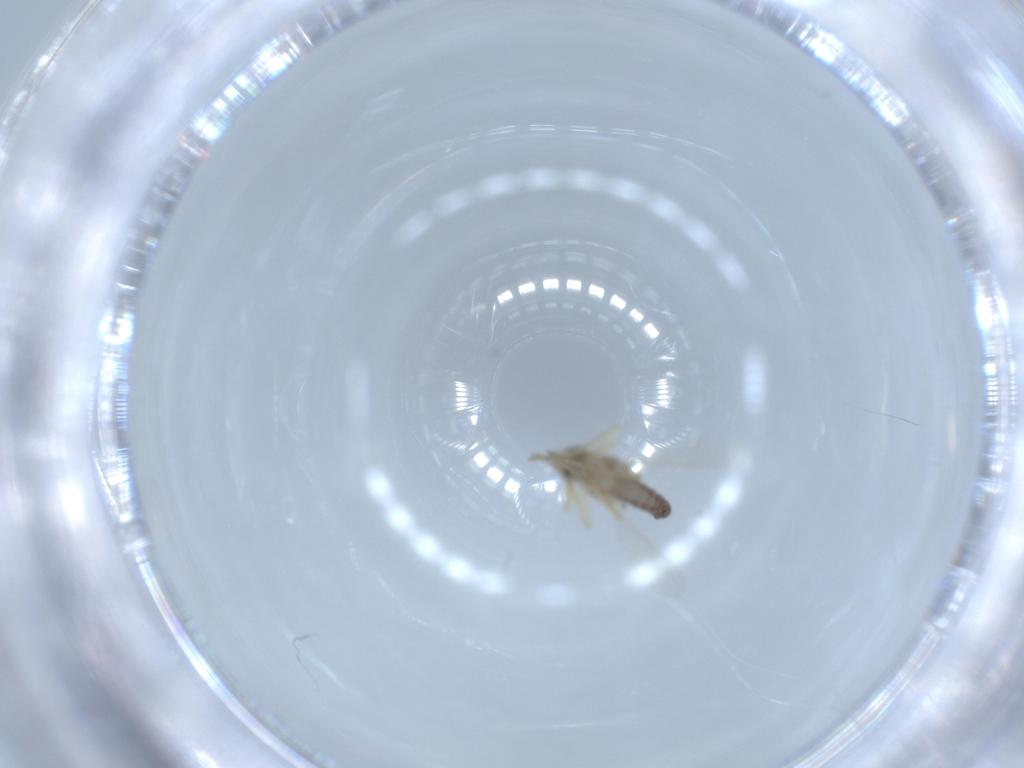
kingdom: Animalia
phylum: Arthropoda
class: Insecta
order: Diptera
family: Ceratopogonidae
